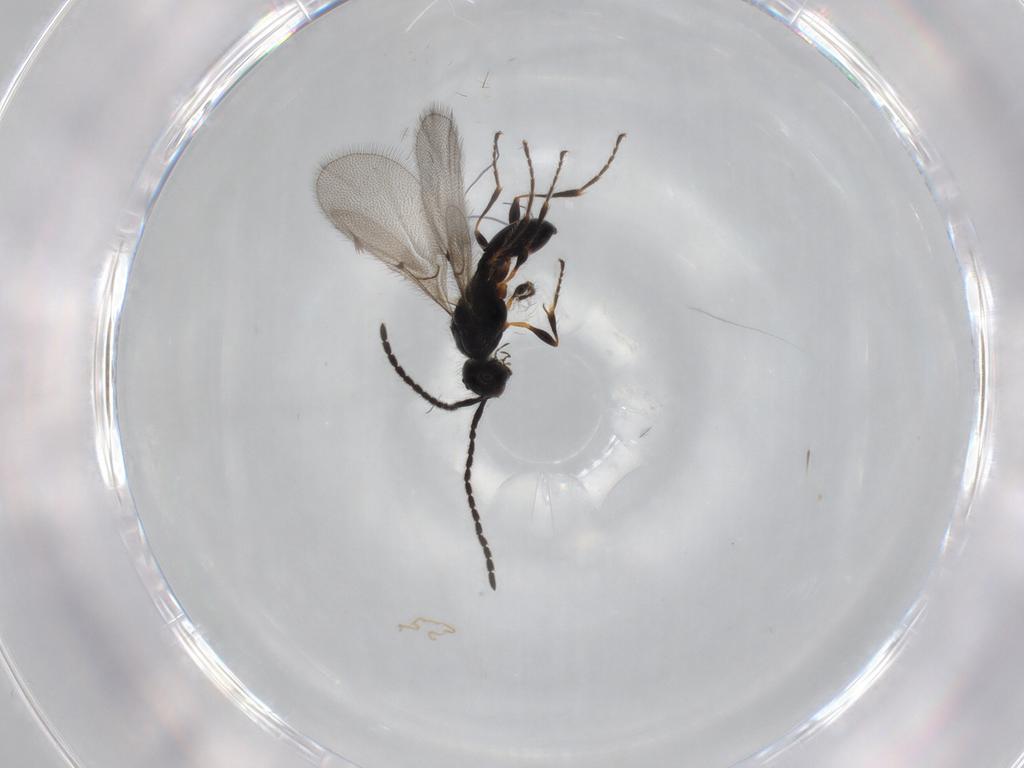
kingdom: Animalia
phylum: Arthropoda
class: Insecta
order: Hymenoptera
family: Diapriidae
